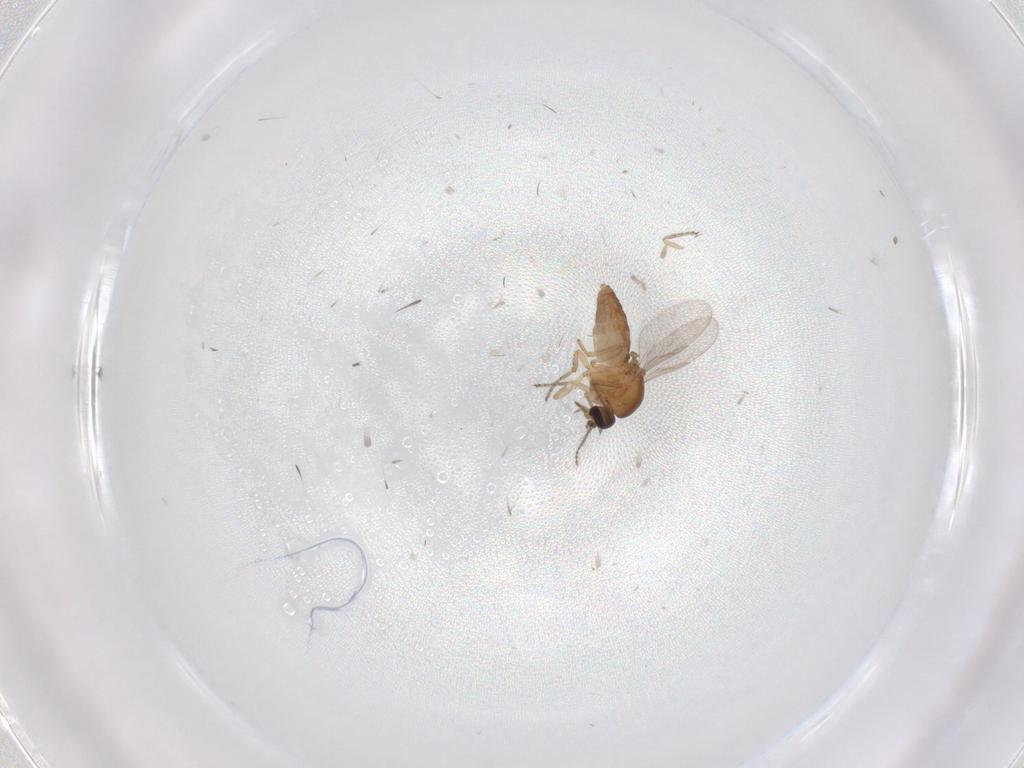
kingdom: Animalia
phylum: Arthropoda
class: Insecta
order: Diptera
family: Ceratopogonidae
